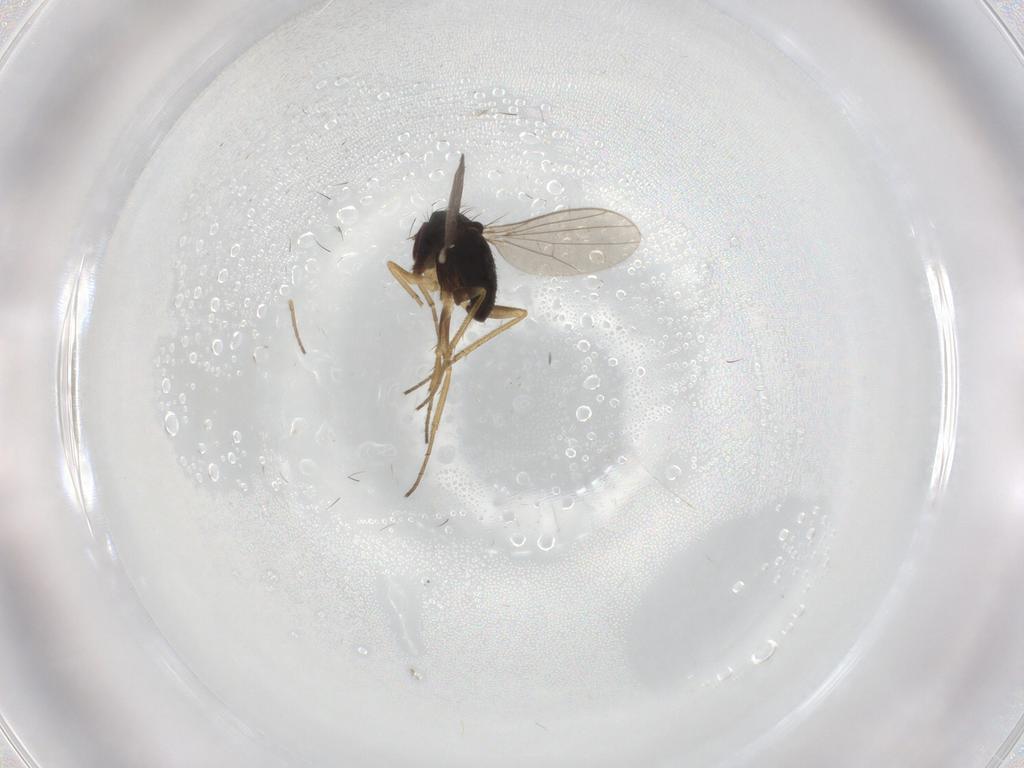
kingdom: Animalia
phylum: Arthropoda
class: Insecta
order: Diptera
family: Dolichopodidae
